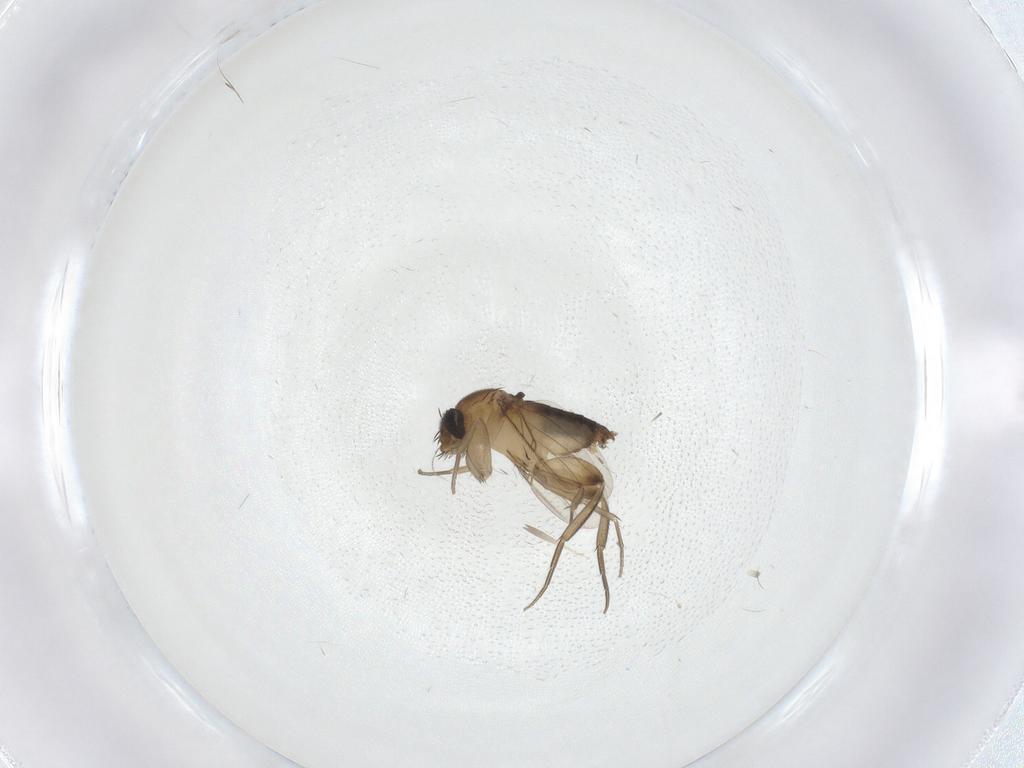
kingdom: Animalia
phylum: Arthropoda
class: Insecta
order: Diptera
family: Phoridae
